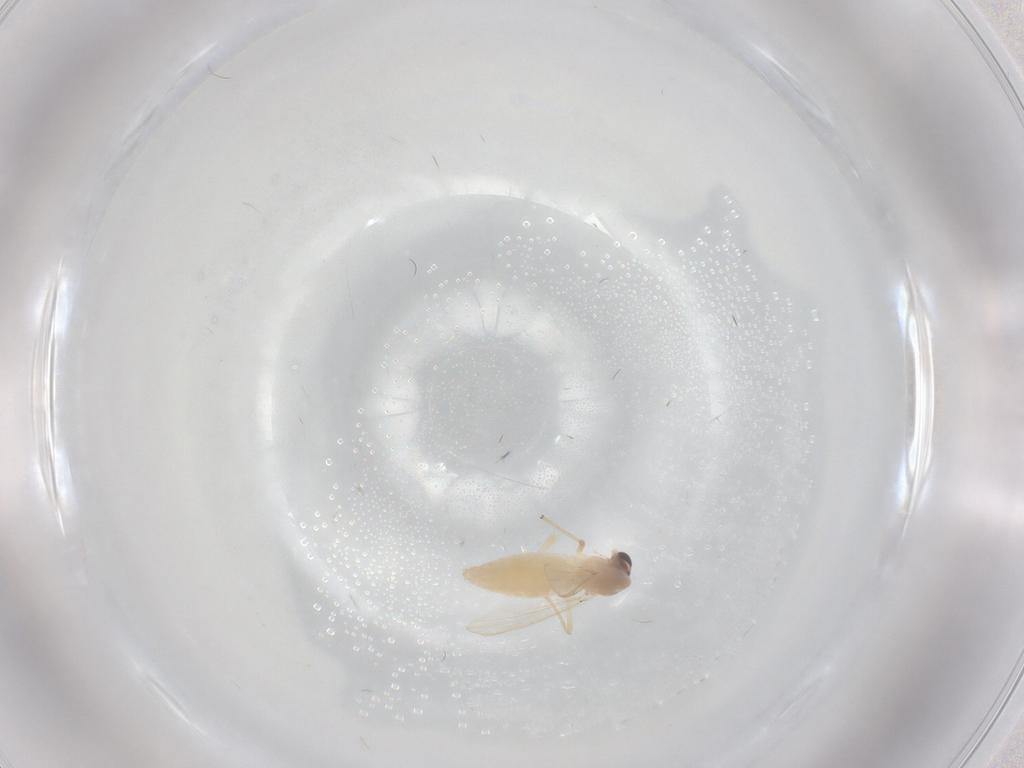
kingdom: Animalia
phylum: Arthropoda
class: Insecta
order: Diptera
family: Chironomidae
